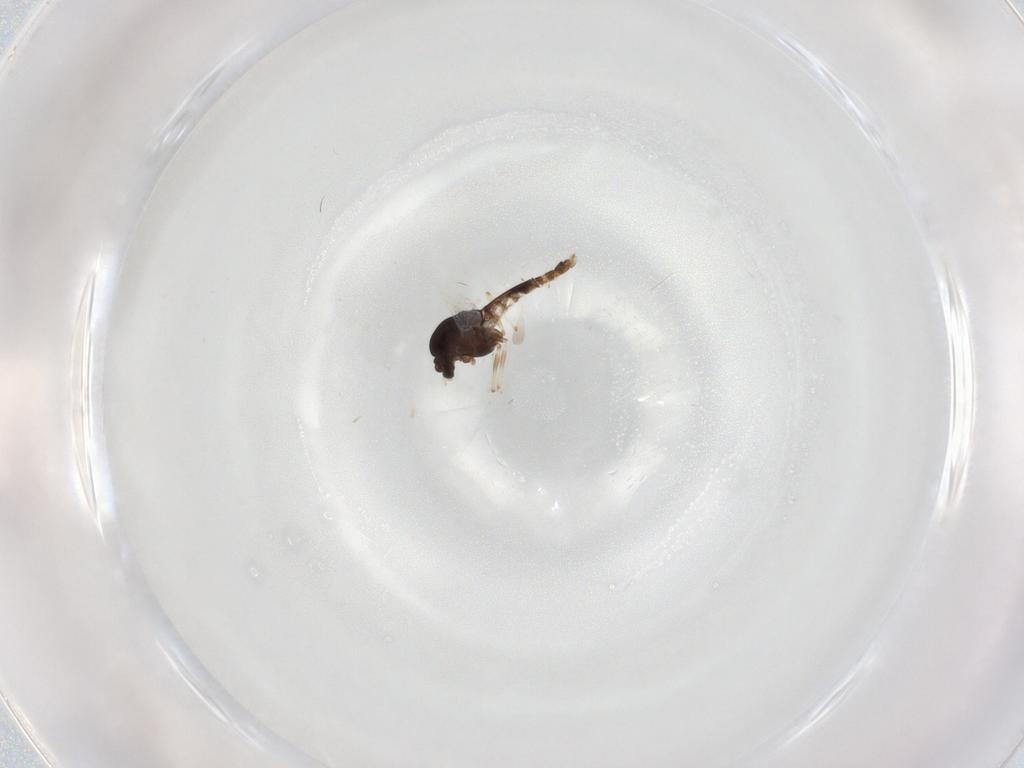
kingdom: Animalia
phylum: Arthropoda
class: Insecta
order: Diptera
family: Chironomidae
